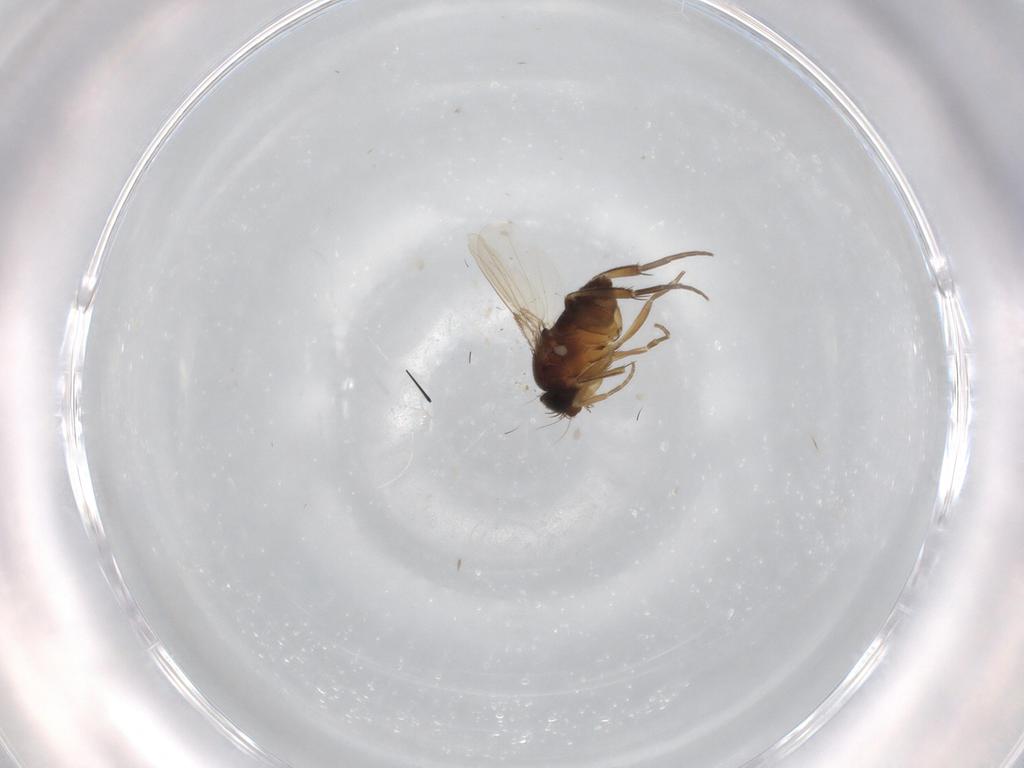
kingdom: Animalia
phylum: Arthropoda
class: Insecta
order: Diptera
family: Phoridae
